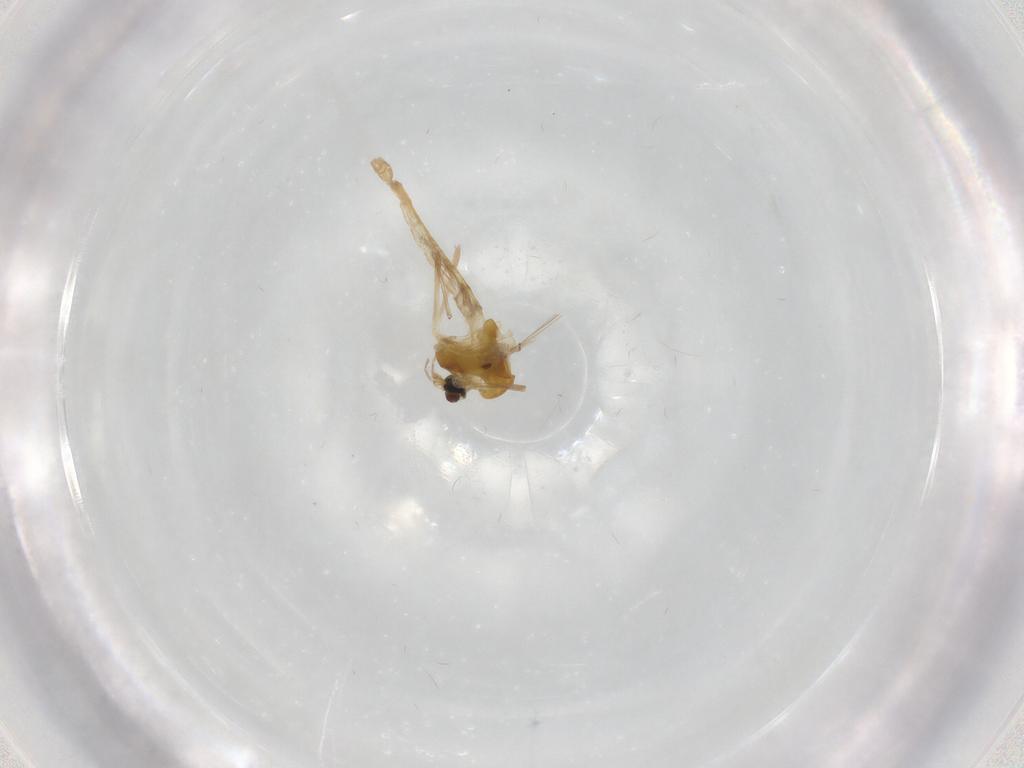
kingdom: Animalia
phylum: Arthropoda
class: Insecta
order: Diptera
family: Chironomidae
